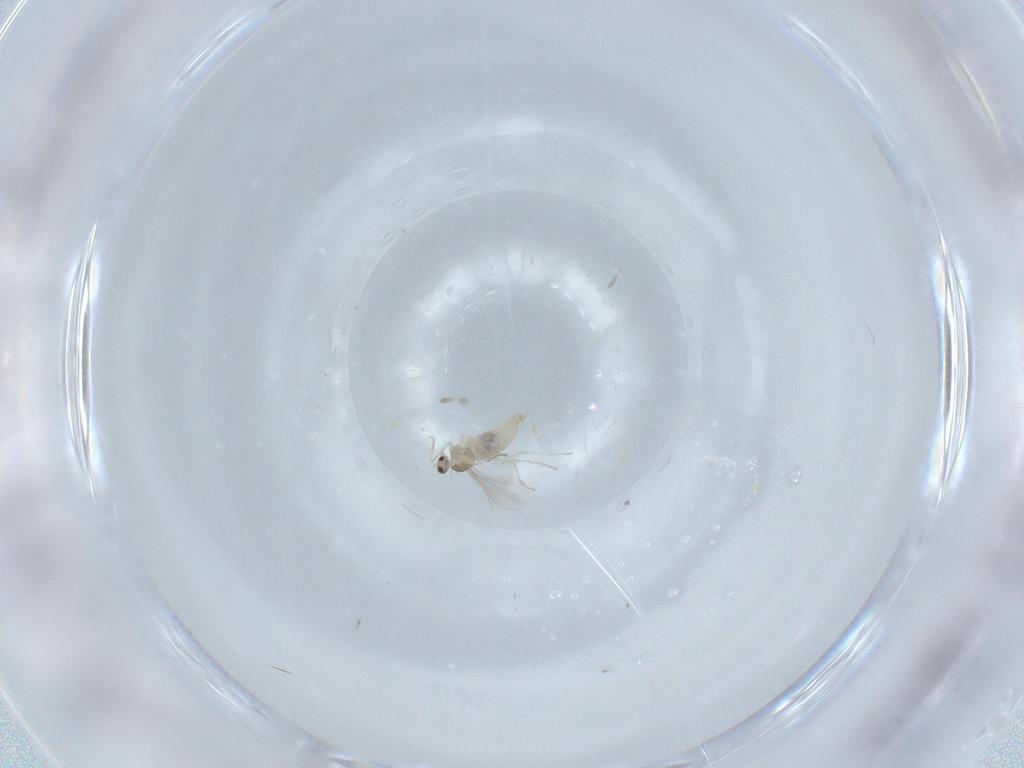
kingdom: Animalia
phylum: Arthropoda
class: Insecta
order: Diptera
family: Cecidomyiidae
